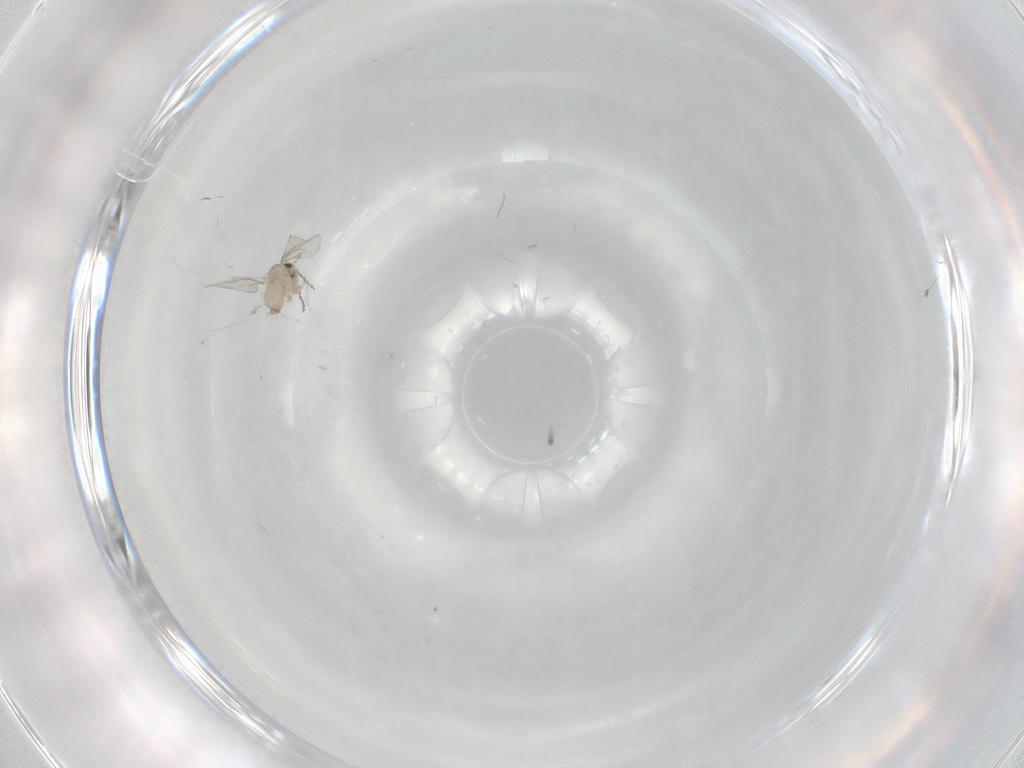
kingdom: Animalia
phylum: Arthropoda
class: Insecta
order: Diptera
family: Cecidomyiidae
